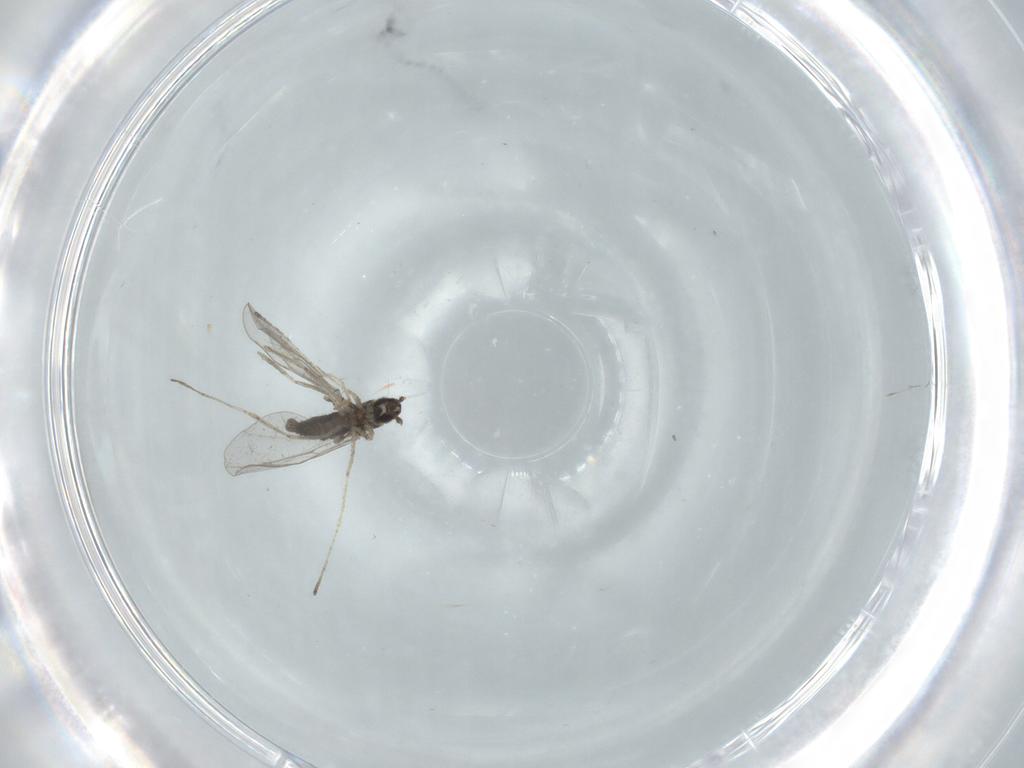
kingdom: Animalia
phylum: Arthropoda
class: Insecta
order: Diptera
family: Cecidomyiidae
